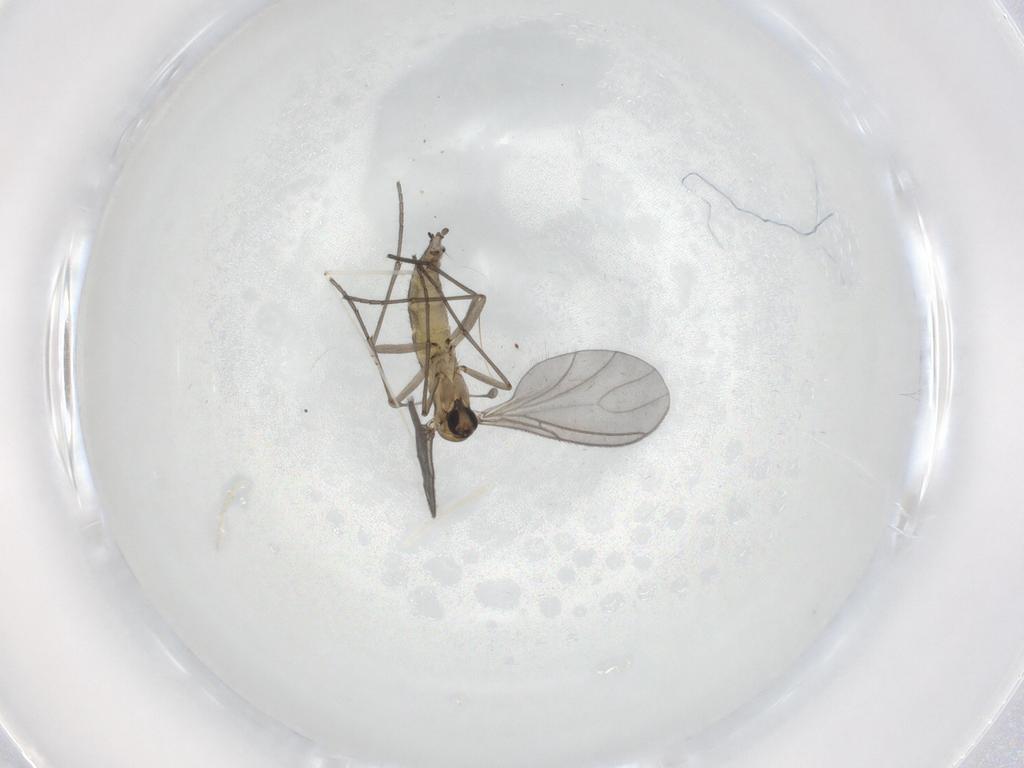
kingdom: Animalia
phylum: Arthropoda
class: Insecta
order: Diptera
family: Sciaridae
